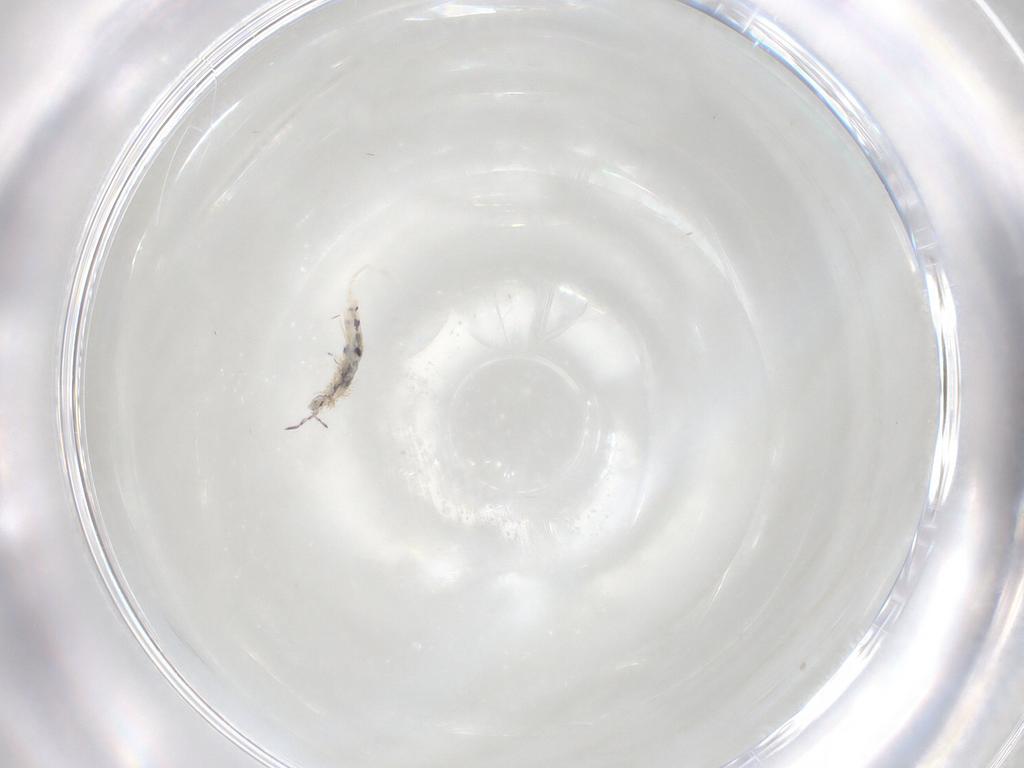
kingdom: Animalia
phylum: Arthropoda
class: Collembola
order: Entomobryomorpha
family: Entomobryidae
